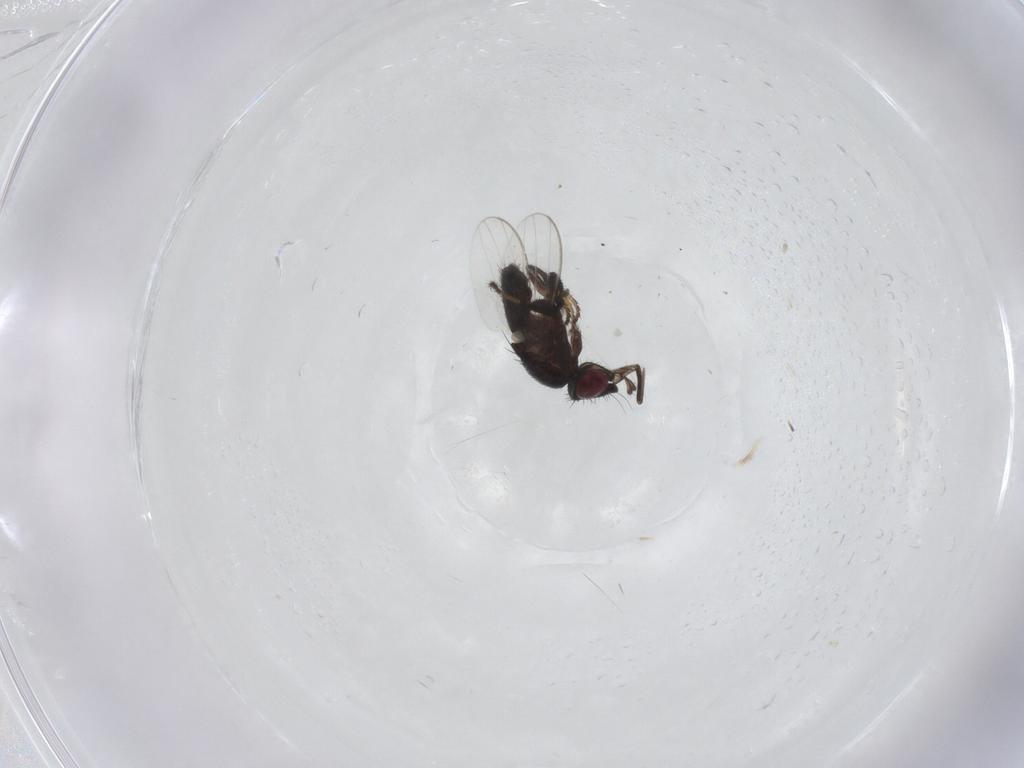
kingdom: Animalia
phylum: Arthropoda
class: Insecta
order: Diptera
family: Milichiidae
